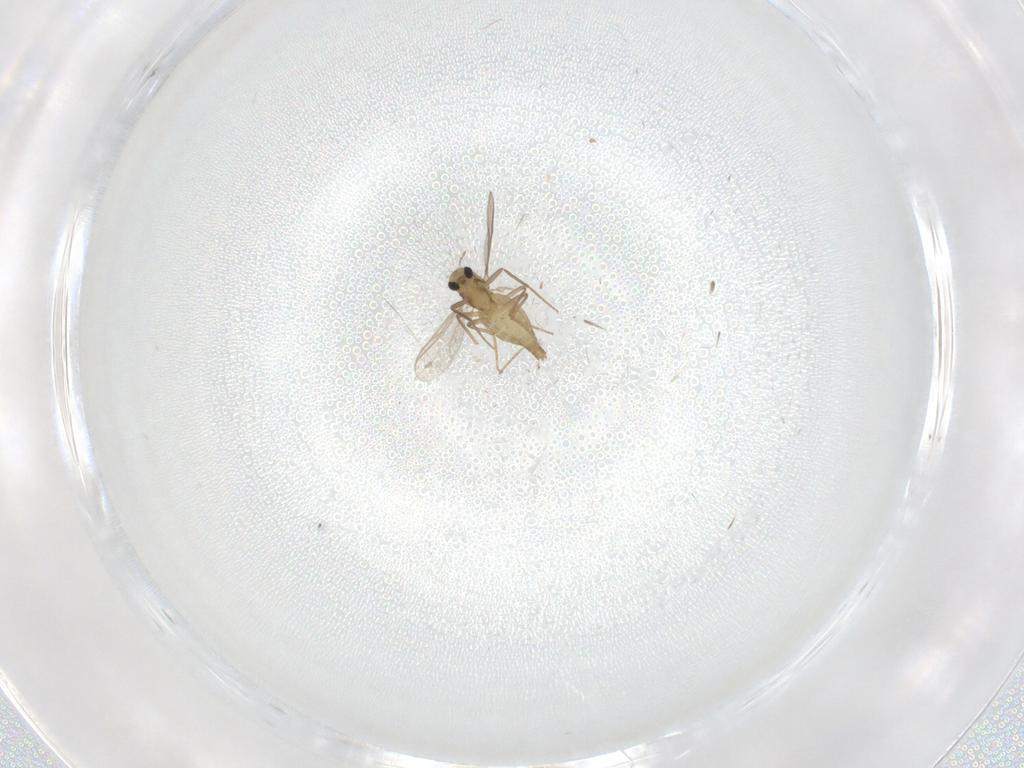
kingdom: Animalia
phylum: Arthropoda
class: Insecta
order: Diptera
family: Chironomidae
